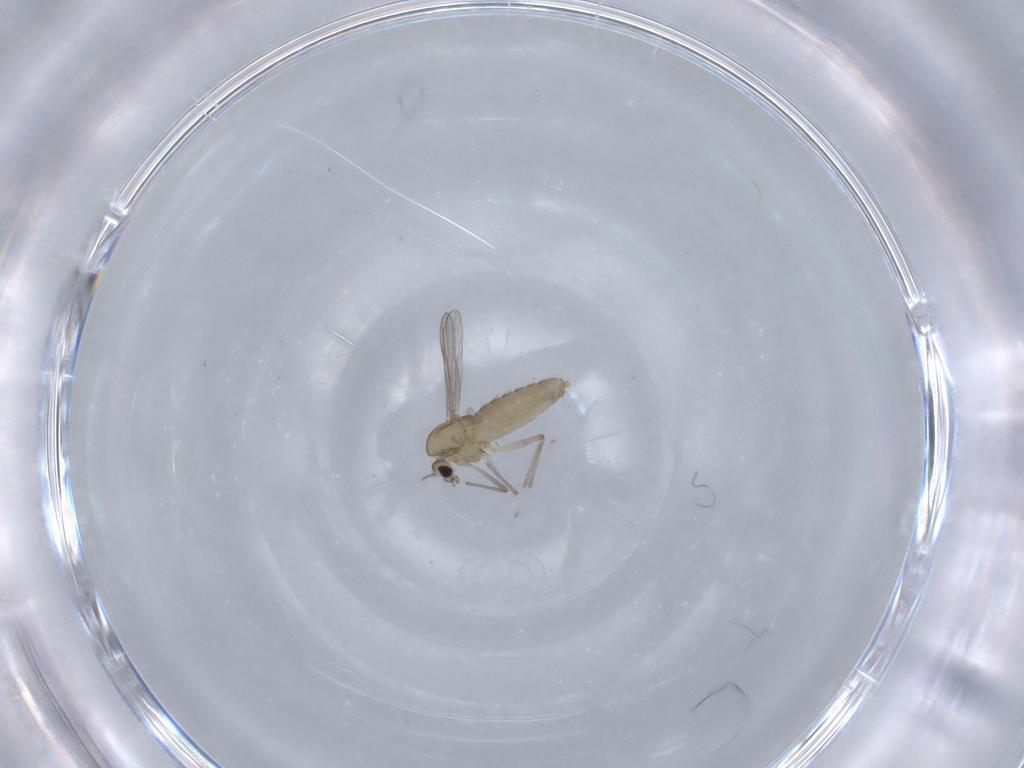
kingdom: Animalia
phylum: Arthropoda
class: Insecta
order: Diptera
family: Chironomidae
